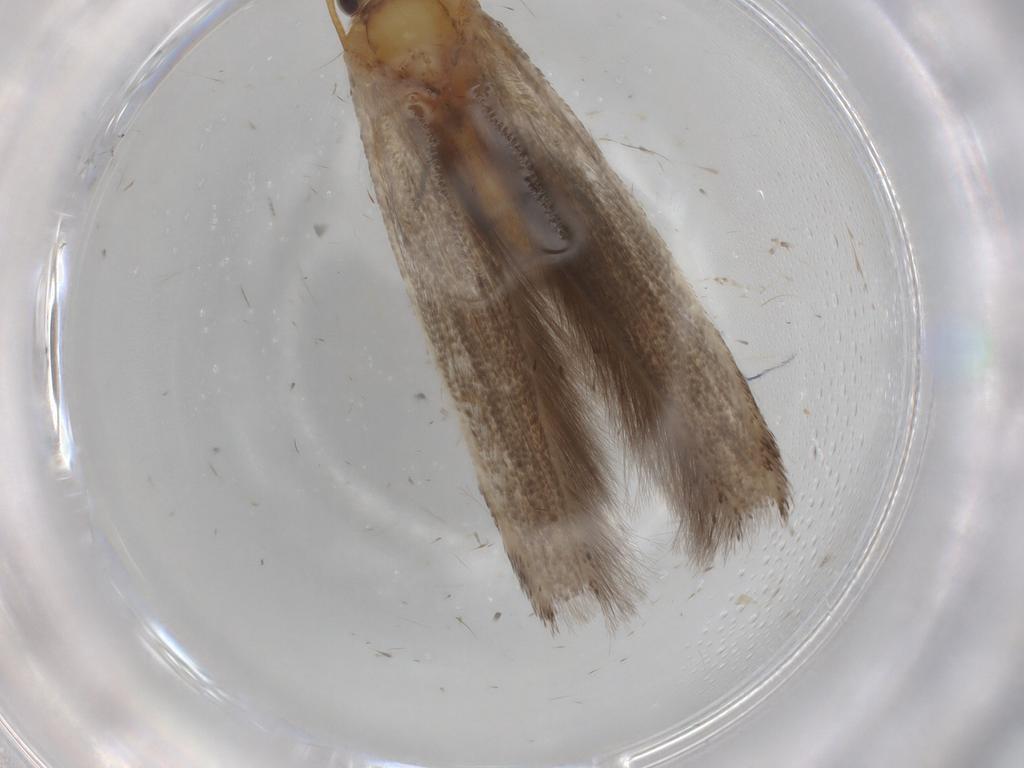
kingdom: Animalia
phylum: Arthropoda
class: Insecta
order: Lepidoptera
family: Batrachedridae
